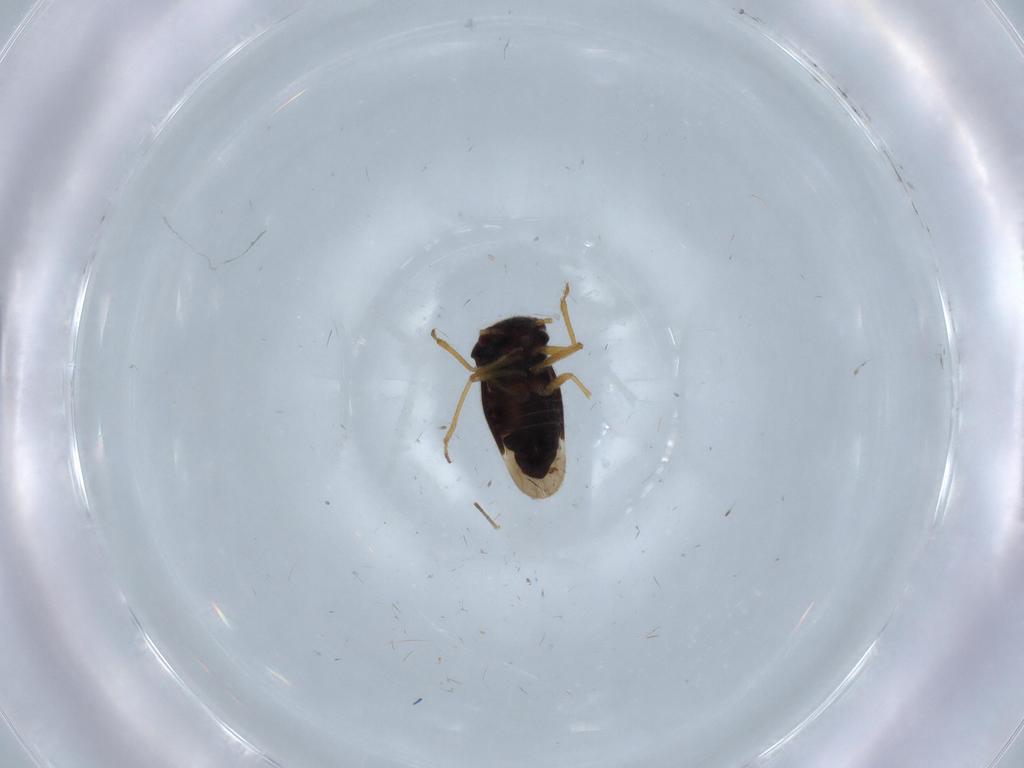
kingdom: Animalia
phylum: Arthropoda
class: Insecta
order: Hemiptera
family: Schizopteridae
